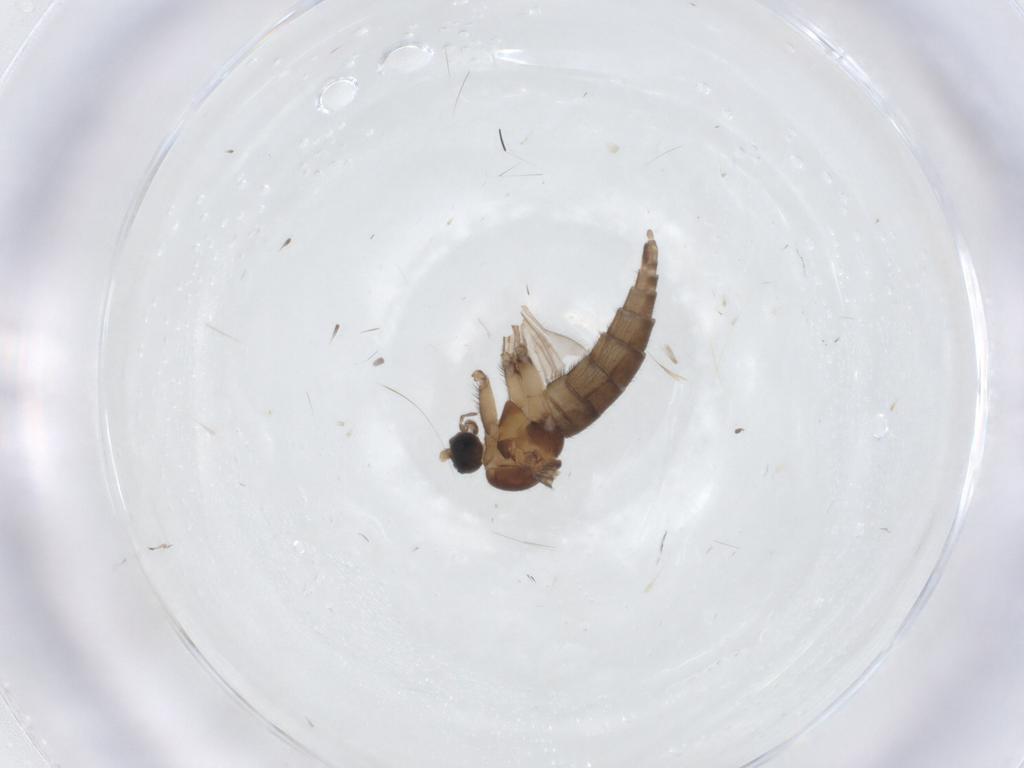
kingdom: Animalia
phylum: Arthropoda
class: Insecta
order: Diptera
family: Sciaridae
